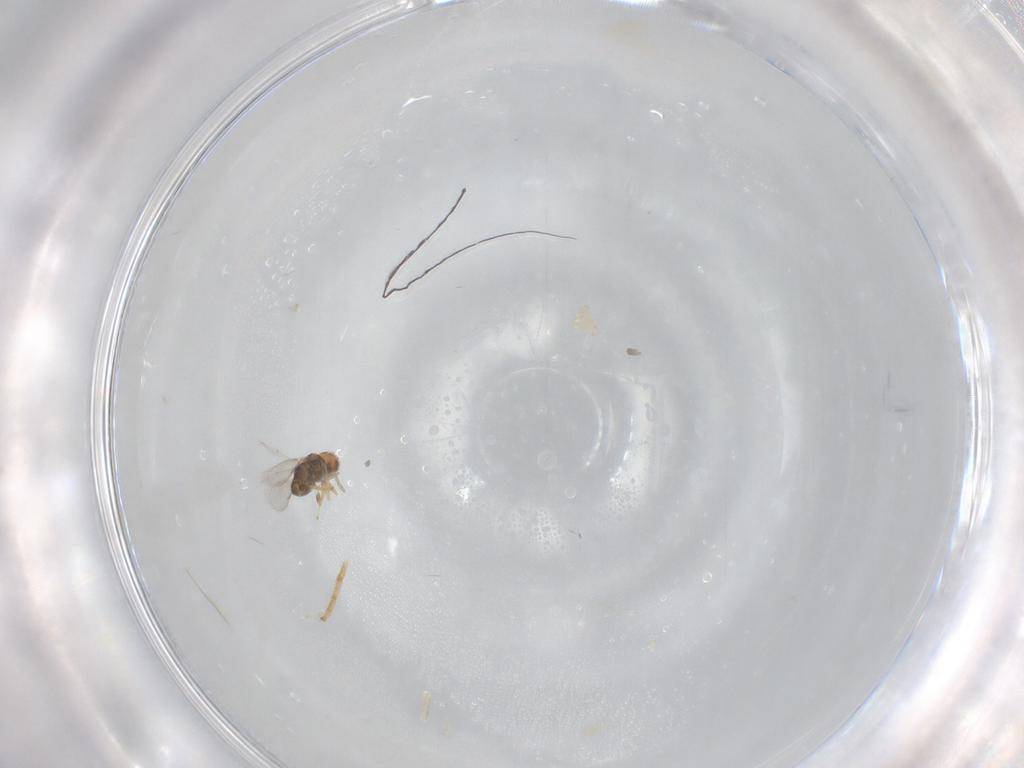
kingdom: Animalia
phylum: Arthropoda
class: Insecta
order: Hymenoptera
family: Aphelinidae
